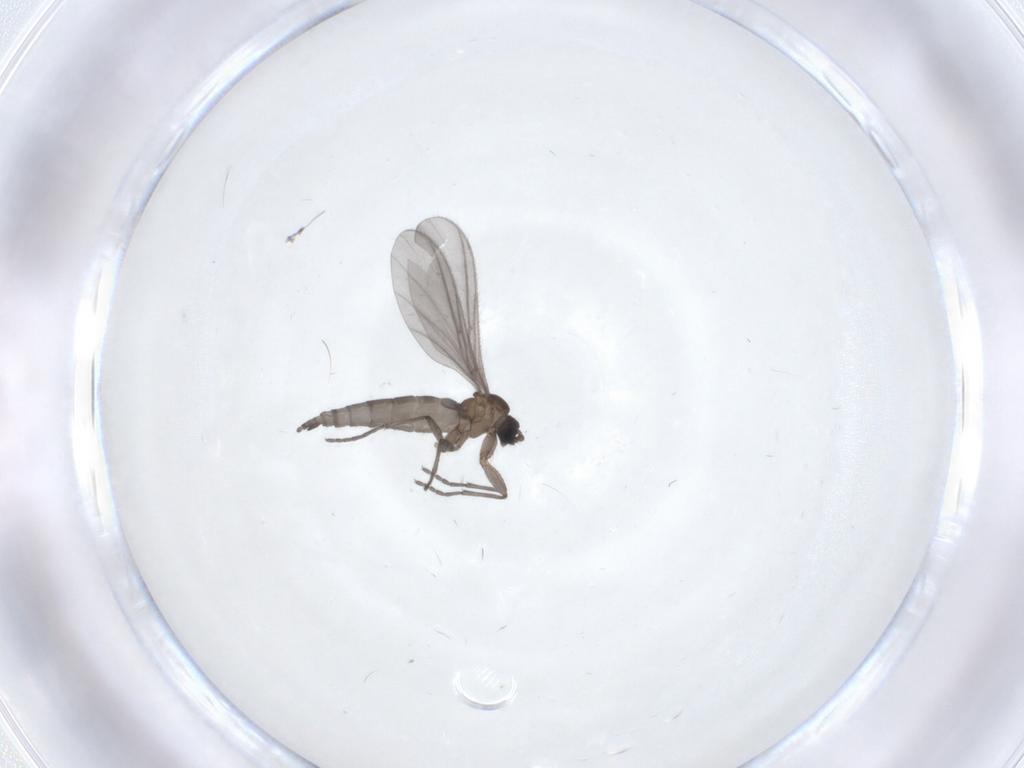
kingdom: Animalia
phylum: Arthropoda
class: Insecta
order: Diptera
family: Sciaridae
